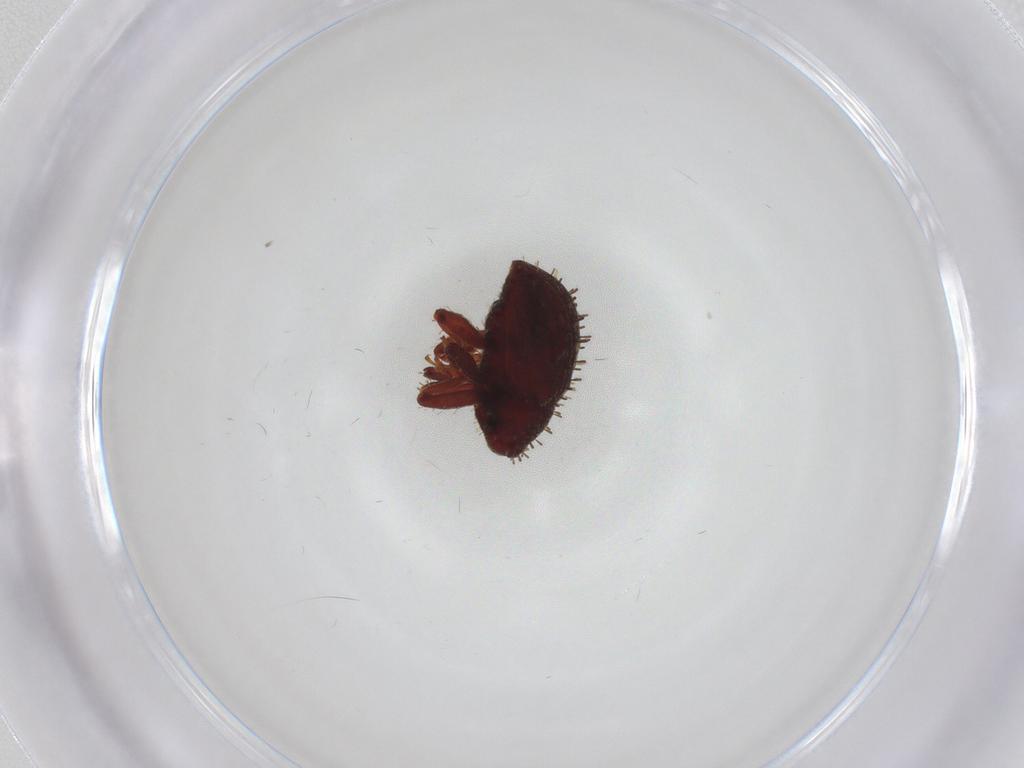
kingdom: Animalia
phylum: Arthropoda
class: Insecta
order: Coleoptera
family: Curculionidae
